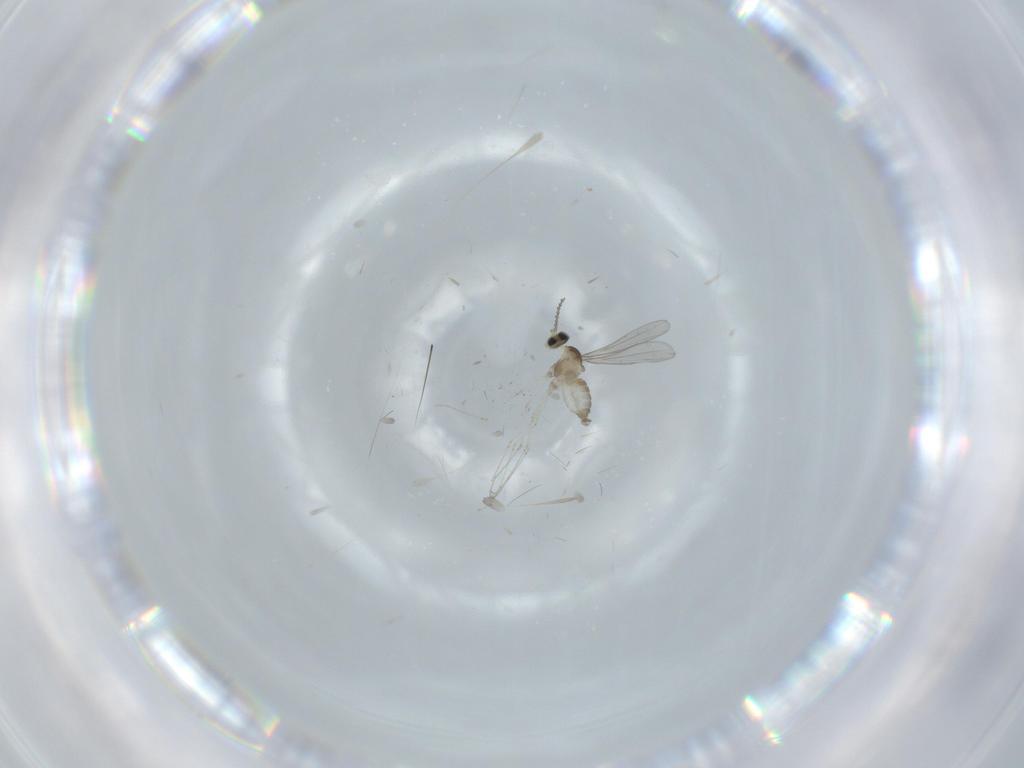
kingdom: Animalia
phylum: Arthropoda
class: Insecta
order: Diptera
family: Cecidomyiidae
